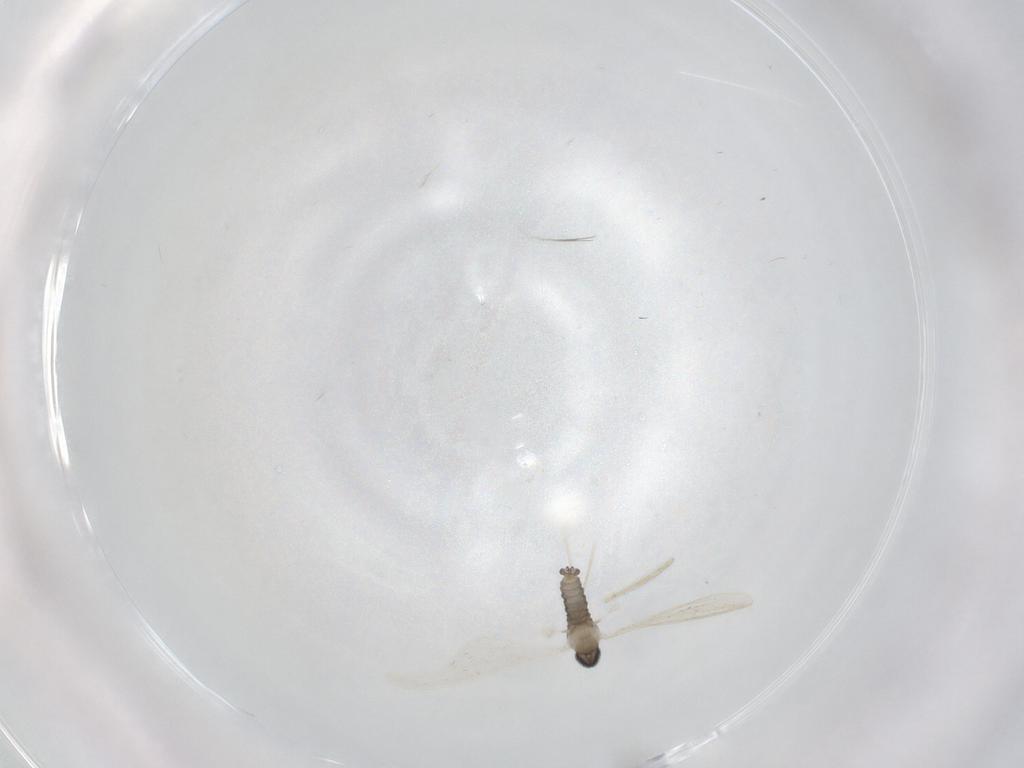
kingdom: Animalia
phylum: Arthropoda
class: Insecta
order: Diptera
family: Cecidomyiidae
